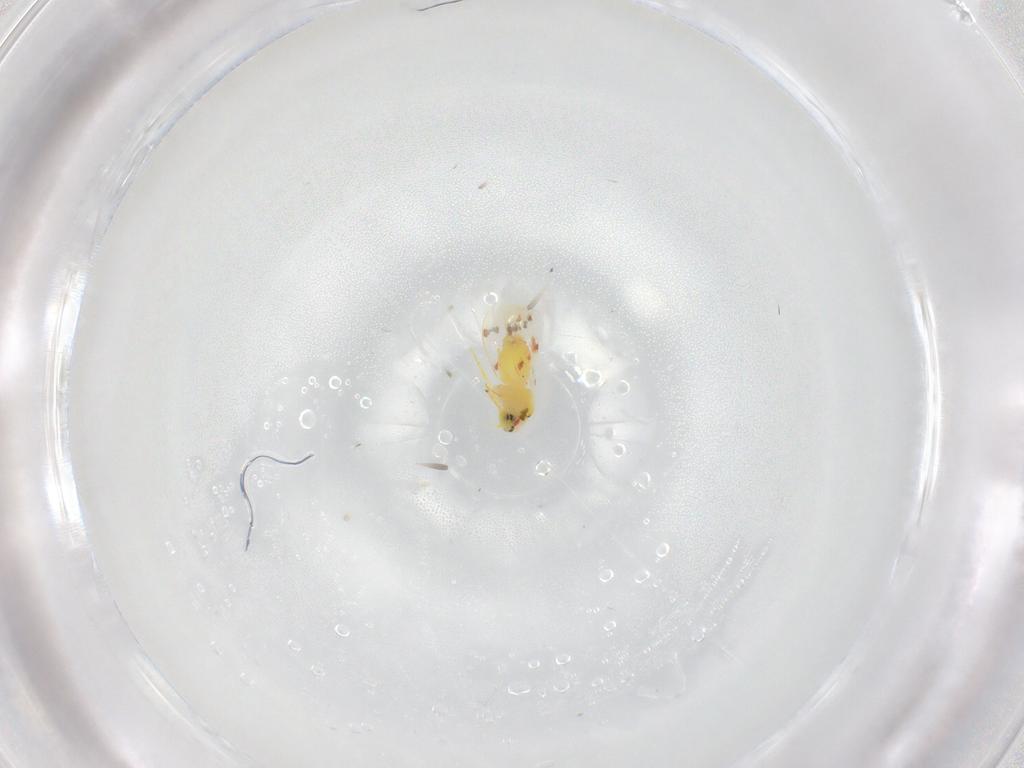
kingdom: Animalia
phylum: Arthropoda
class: Insecta
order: Hemiptera
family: Aleyrodidae
